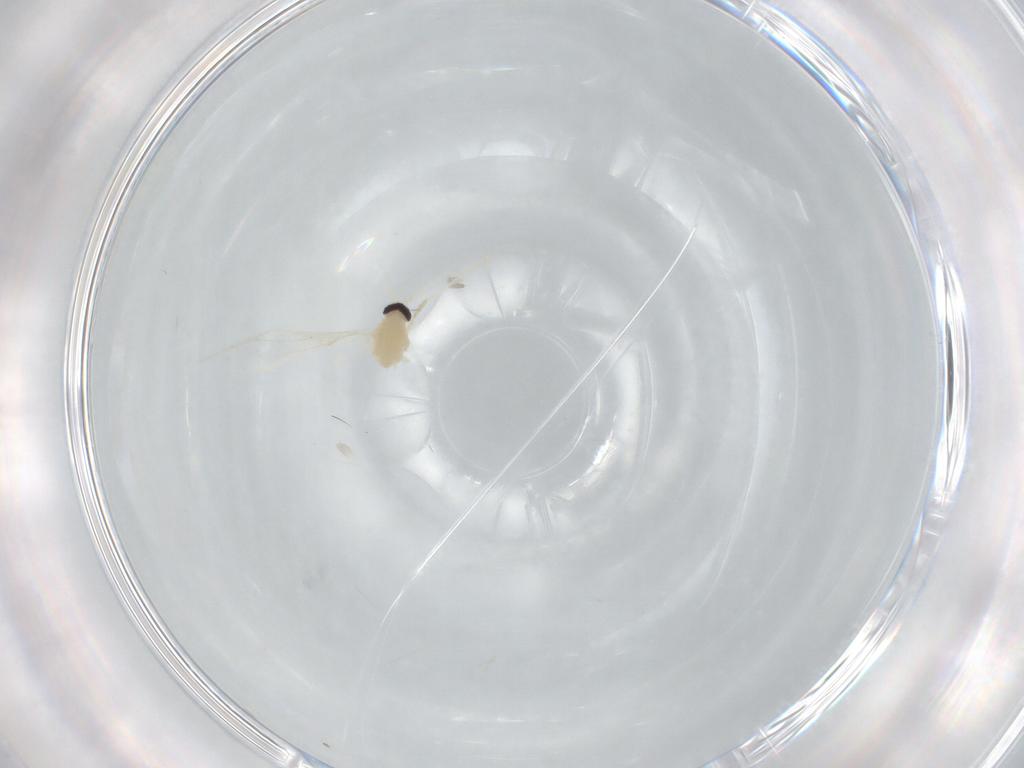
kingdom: Animalia
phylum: Arthropoda
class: Insecta
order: Diptera
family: Cecidomyiidae
